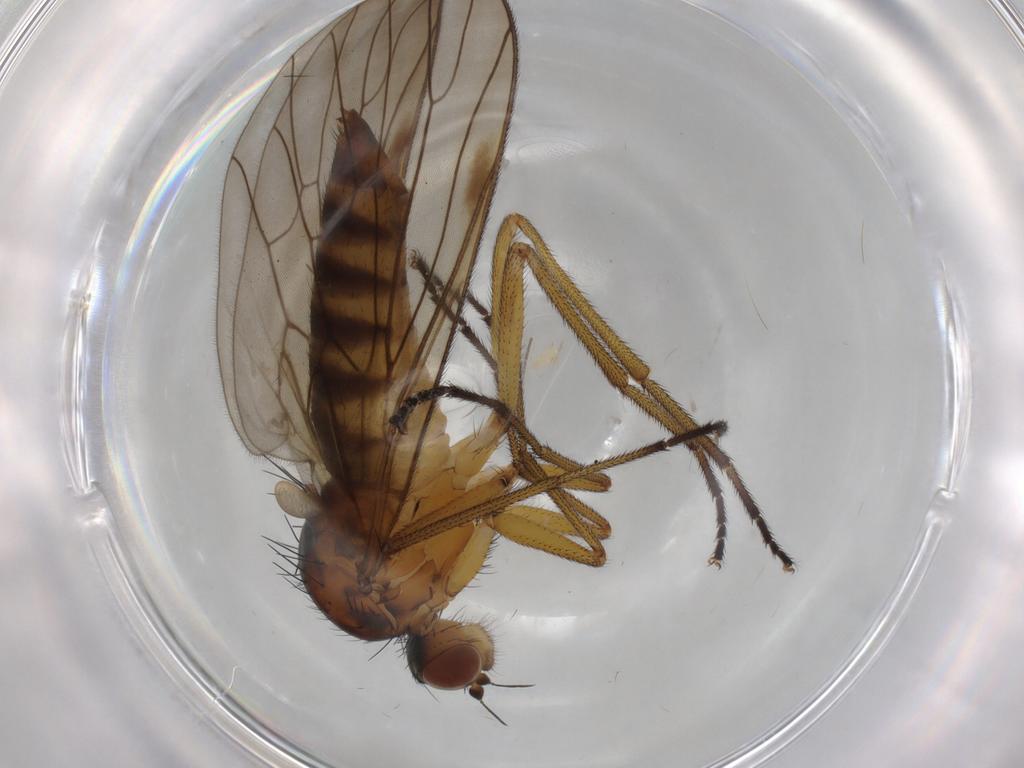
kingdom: Animalia
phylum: Arthropoda
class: Insecta
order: Diptera
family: Brachystomatidae
